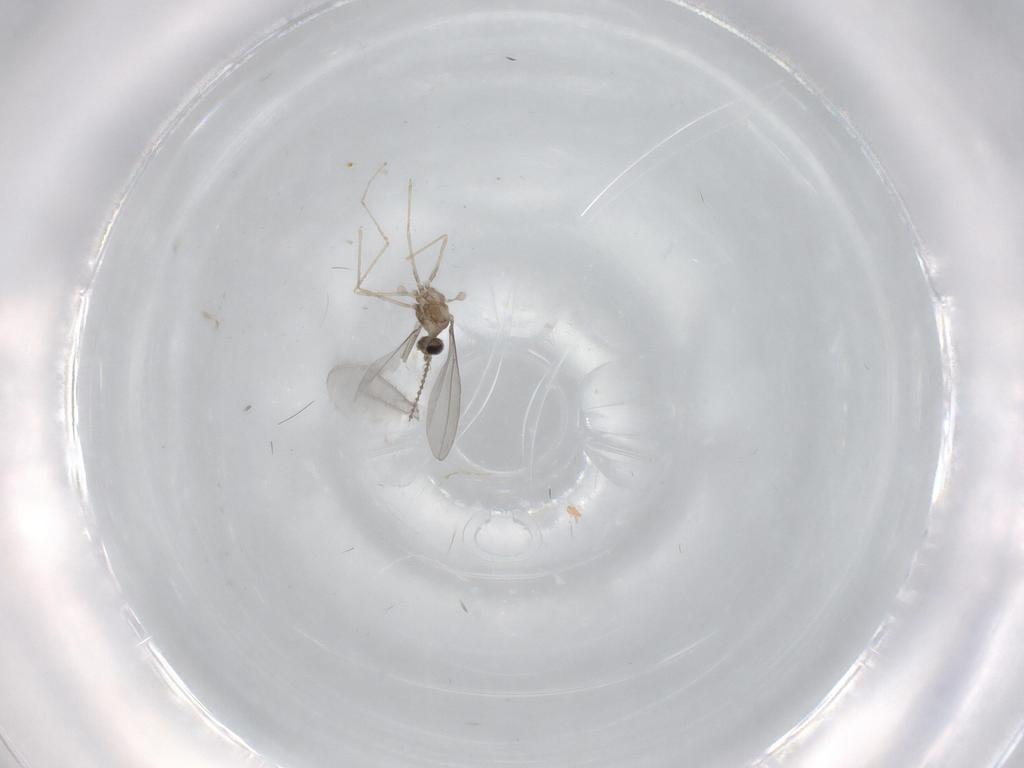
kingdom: Animalia
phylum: Arthropoda
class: Insecta
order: Diptera
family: Cecidomyiidae
